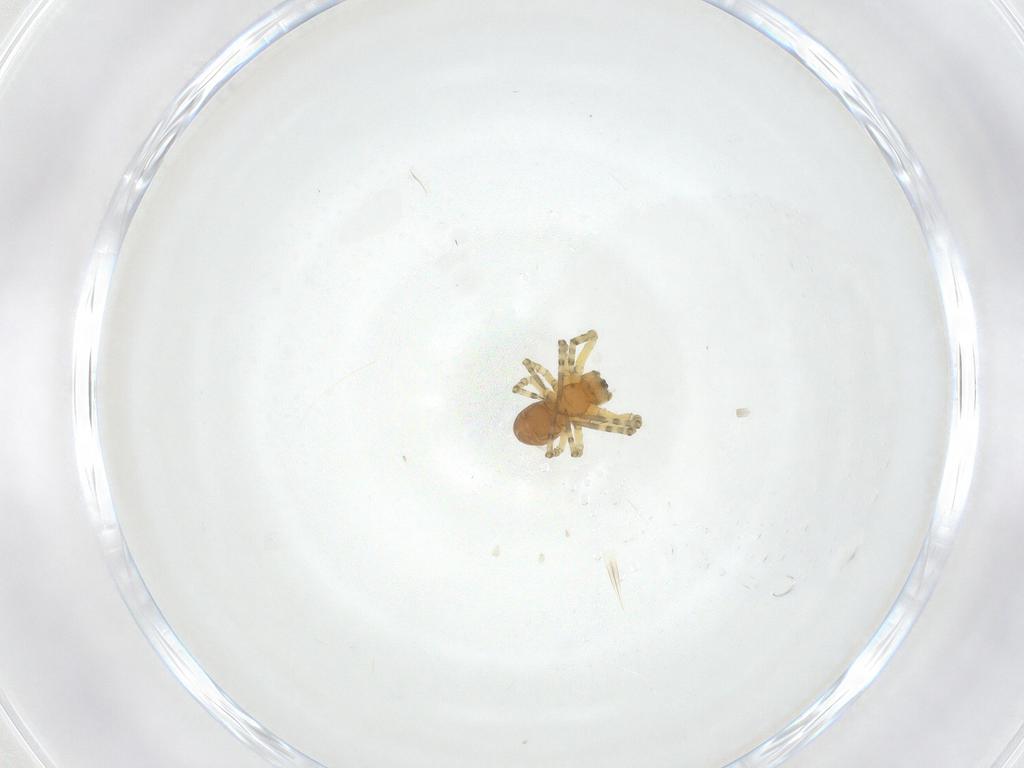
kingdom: Animalia
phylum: Arthropoda
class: Arachnida
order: Araneae
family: Linyphiidae
